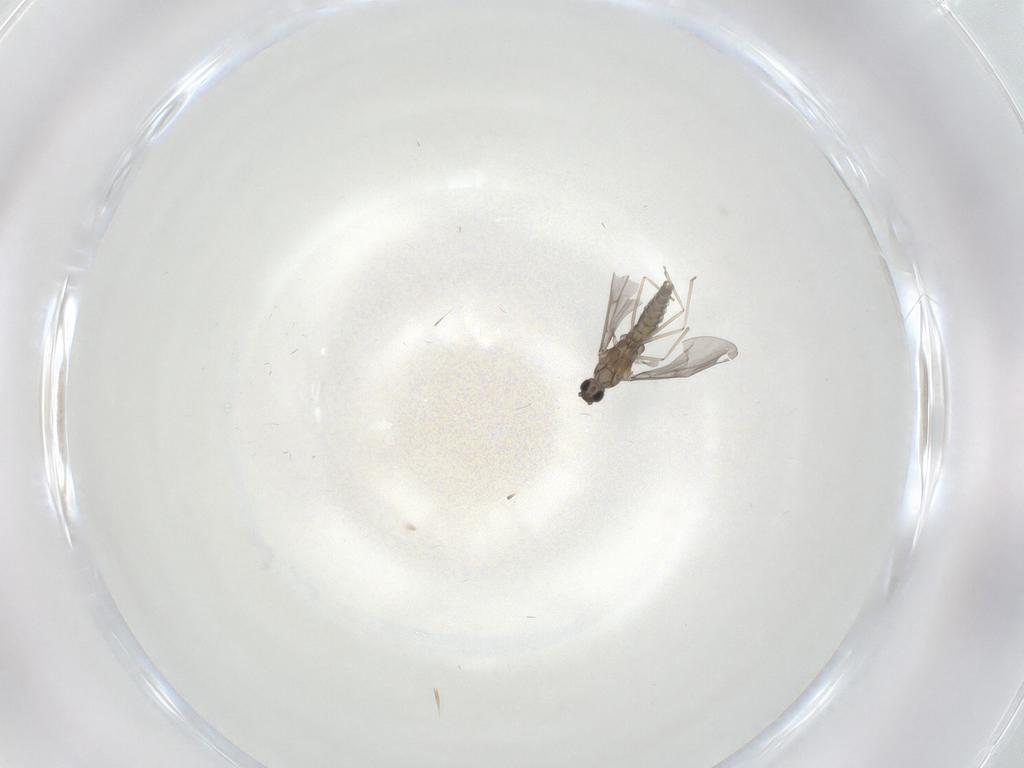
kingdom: Animalia
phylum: Arthropoda
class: Insecta
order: Diptera
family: Cecidomyiidae
